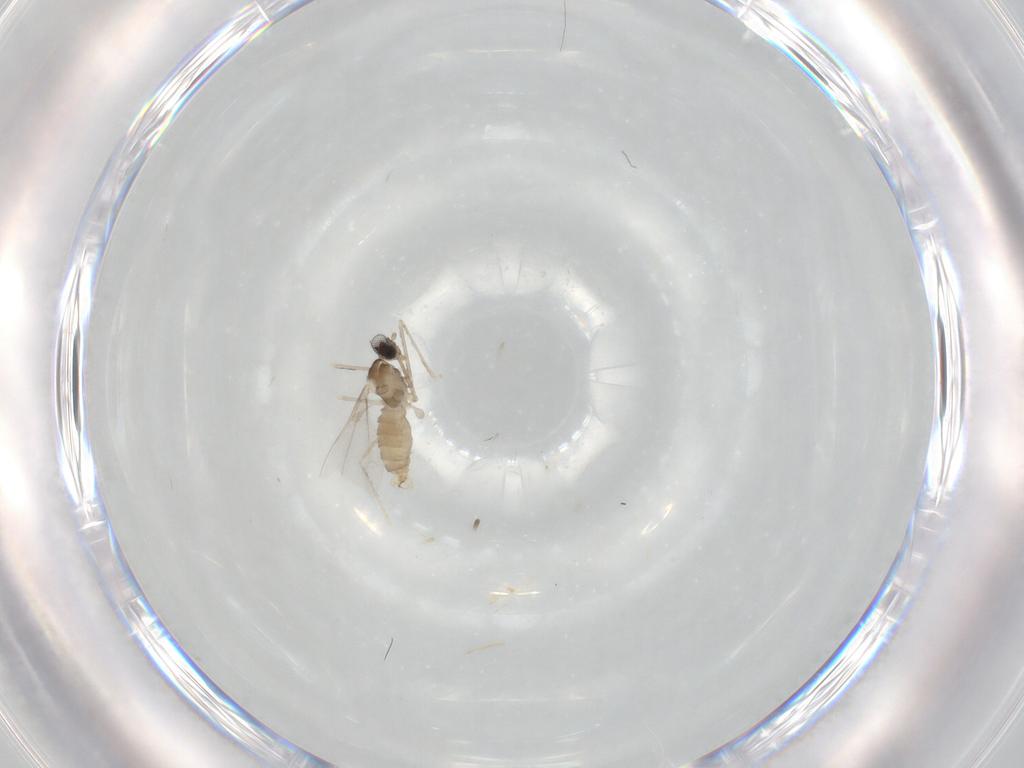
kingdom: Animalia
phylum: Arthropoda
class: Insecta
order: Diptera
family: Cecidomyiidae
